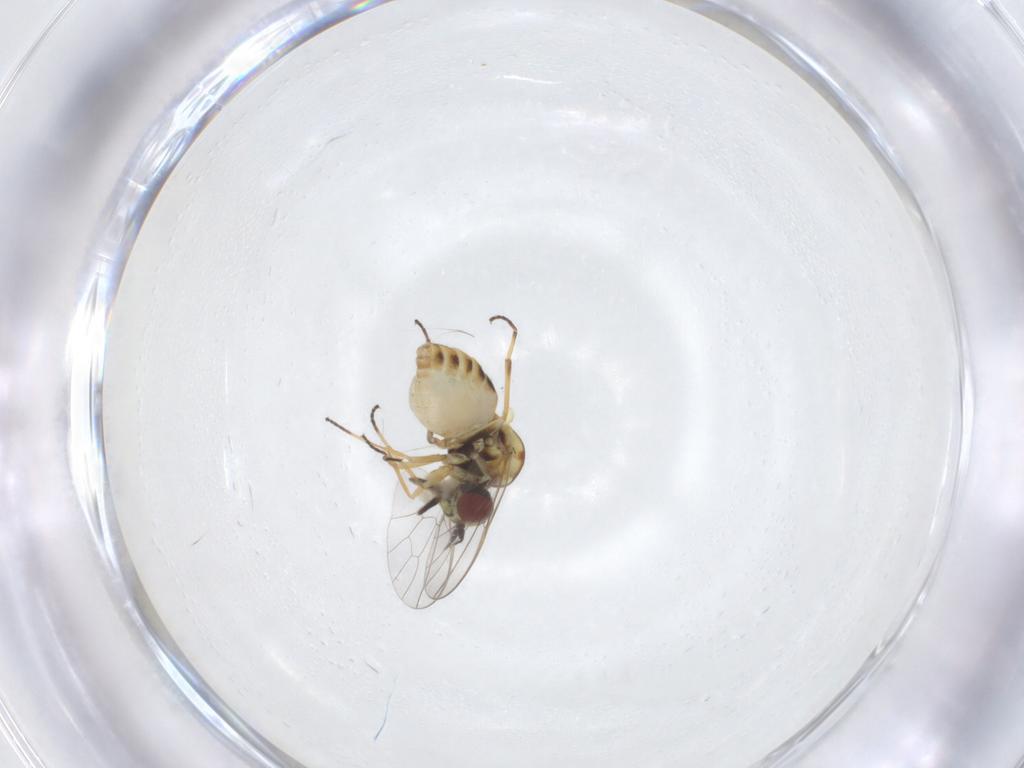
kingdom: Animalia
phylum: Arthropoda
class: Insecta
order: Diptera
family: Bombyliidae
